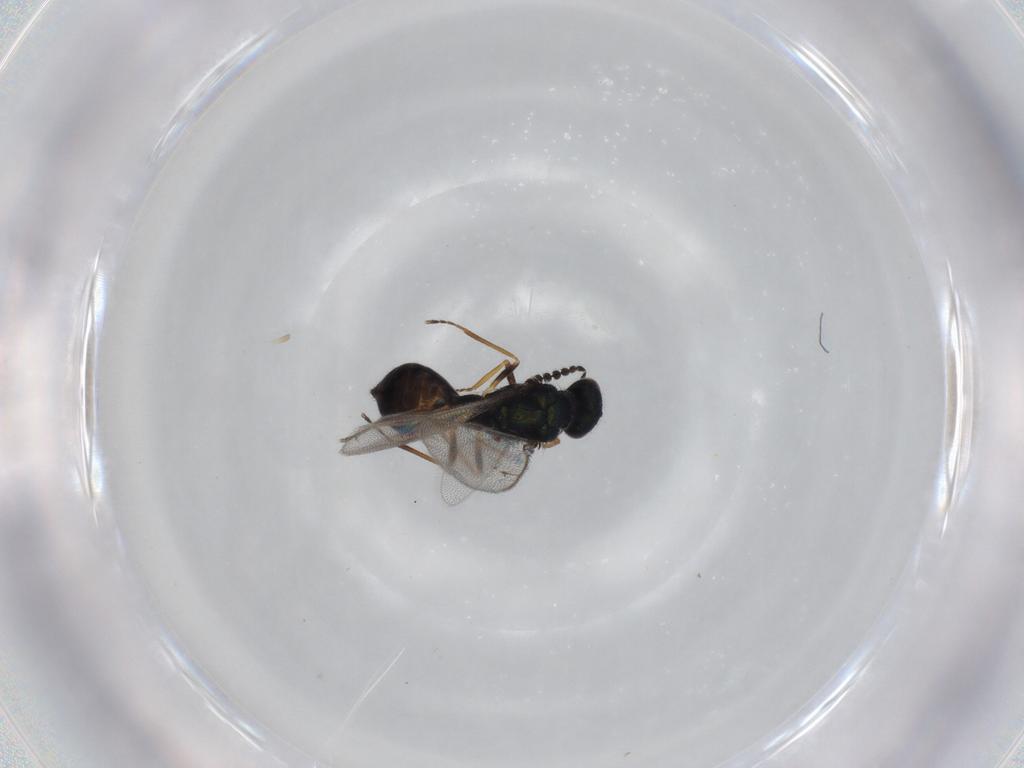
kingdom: Animalia
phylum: Arthropoda
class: Insecta
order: Hymenoptera
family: Eulophidae
